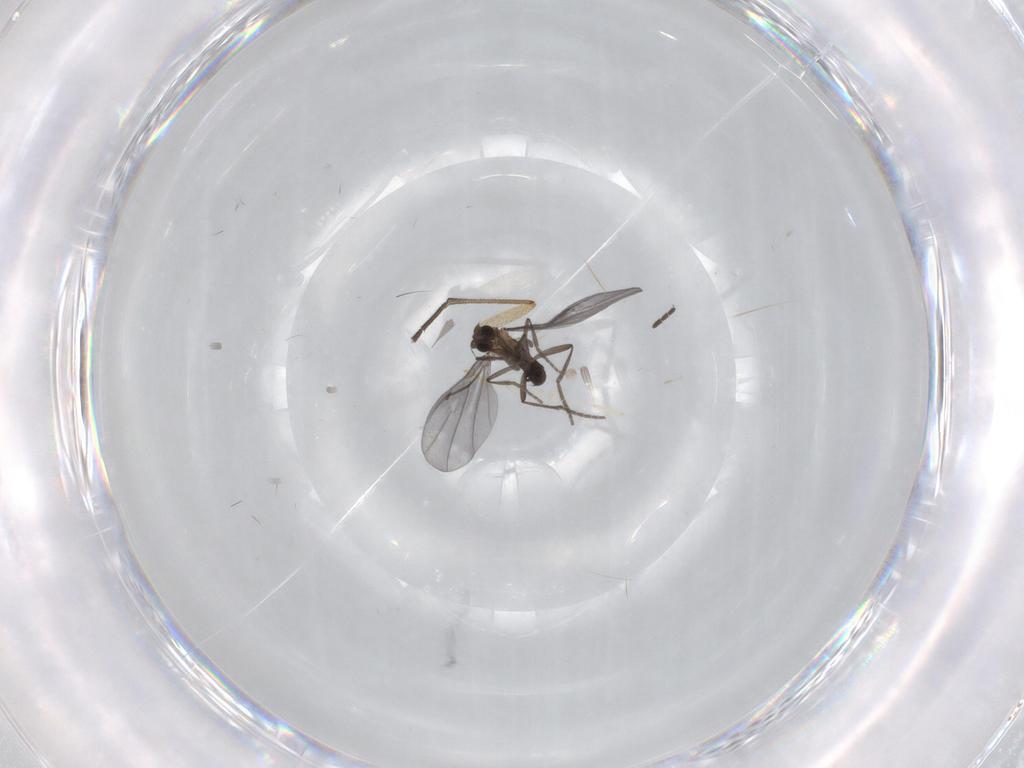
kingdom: Animalia
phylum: Arthropoda
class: Insecta
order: Diptera
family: Phoridae
